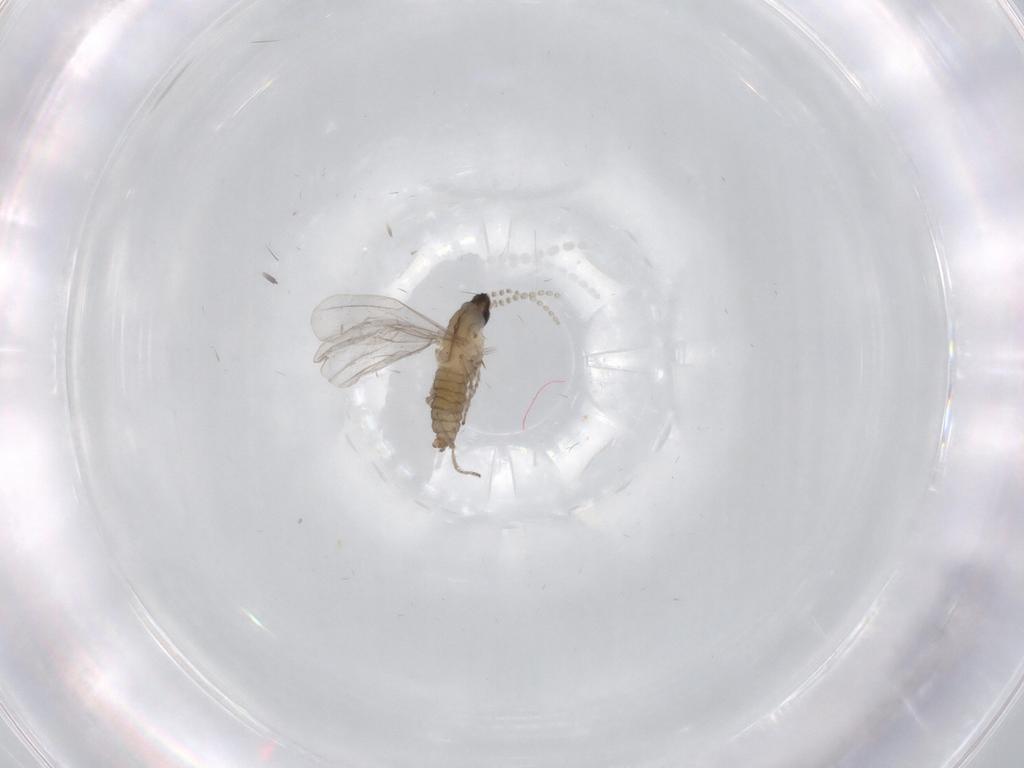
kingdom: Animalia
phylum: Arthropoda
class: Insecta
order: Diptera
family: Cecidomyiidae
